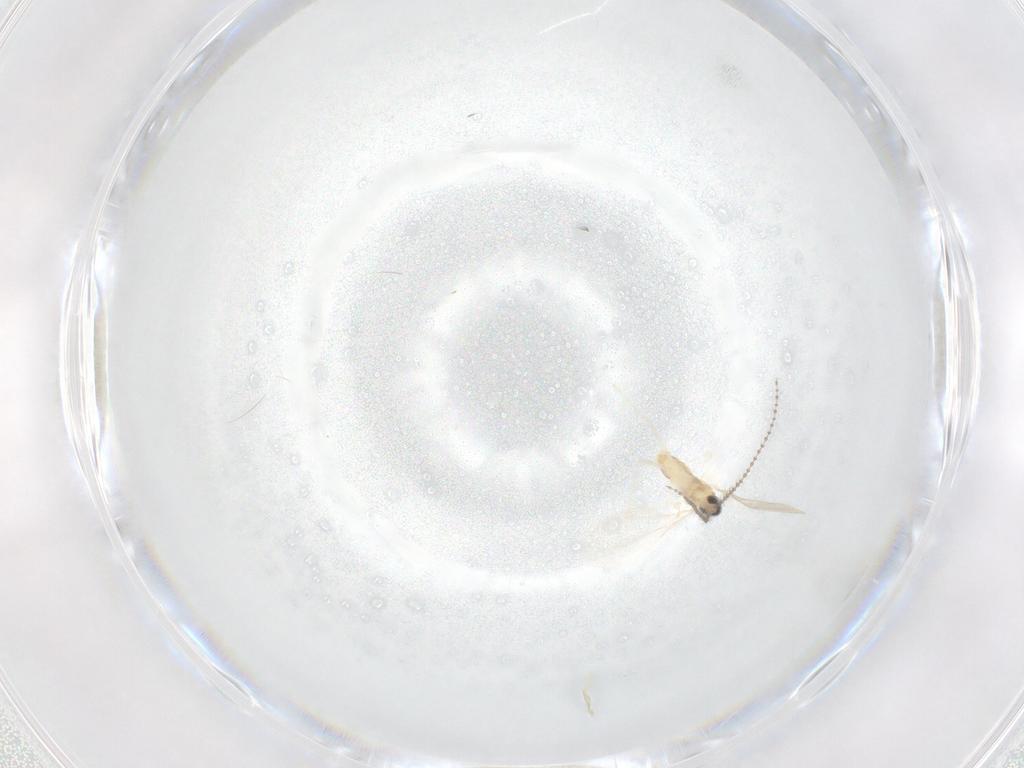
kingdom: Animalia
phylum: Arthropoda
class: Insecta
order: Diptera
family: Cecidomyiidae
